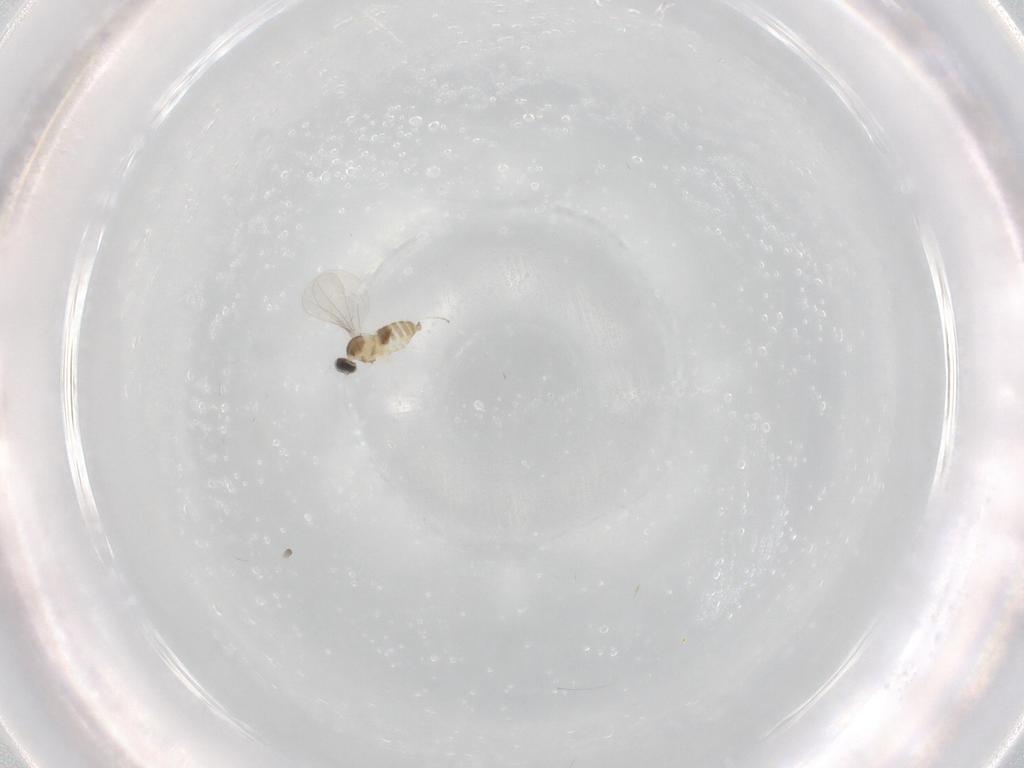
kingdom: Animalia
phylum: Arthropoda
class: Insecta
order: Diptera
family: Cecidomyiidae
